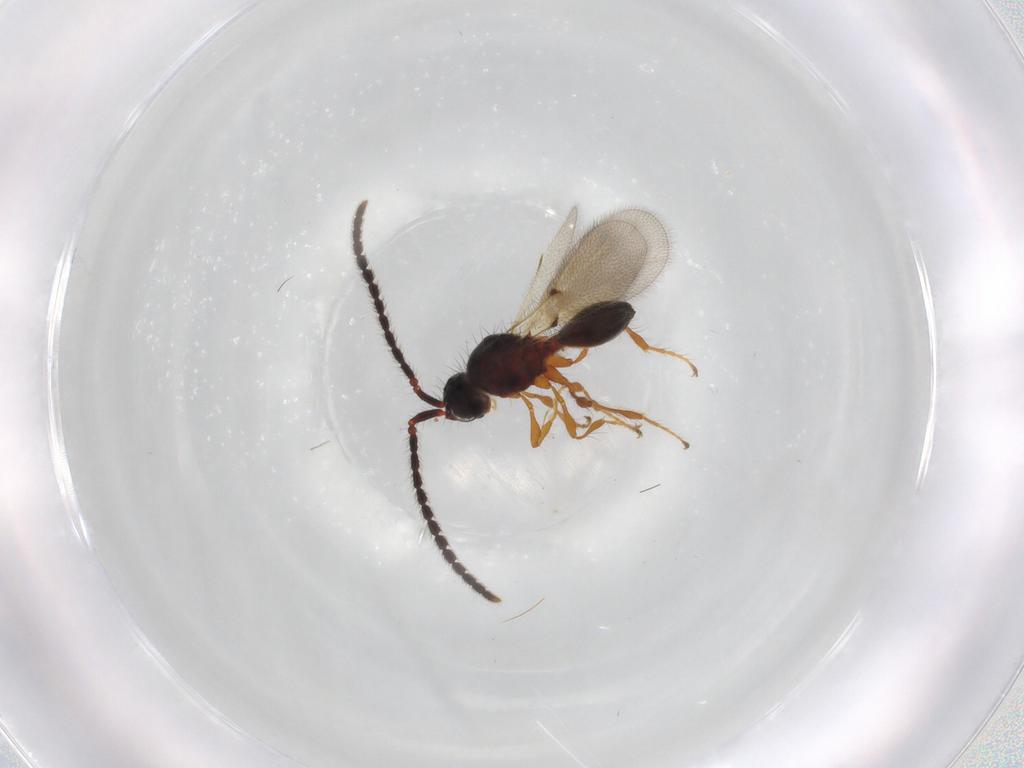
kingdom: Animalia
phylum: Arthropoda
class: Insecta
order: Hymenoptera
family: Diapriidae
